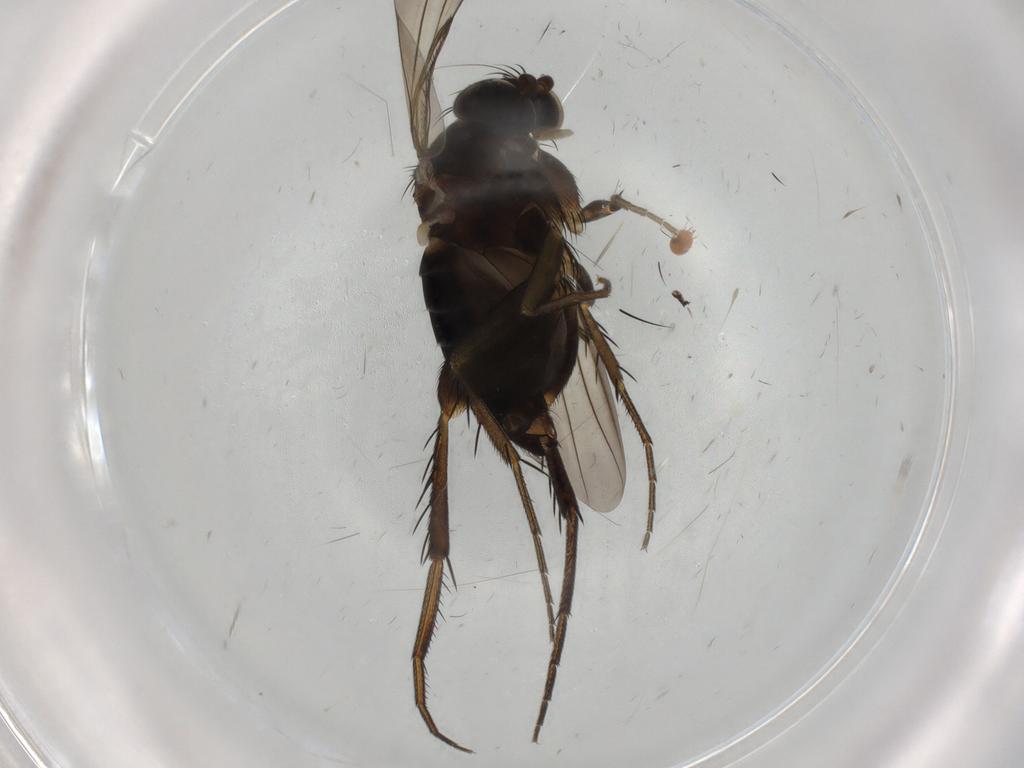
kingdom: Animalia
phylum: Arthropoda
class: Insecta
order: Diptera
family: Phoridae
